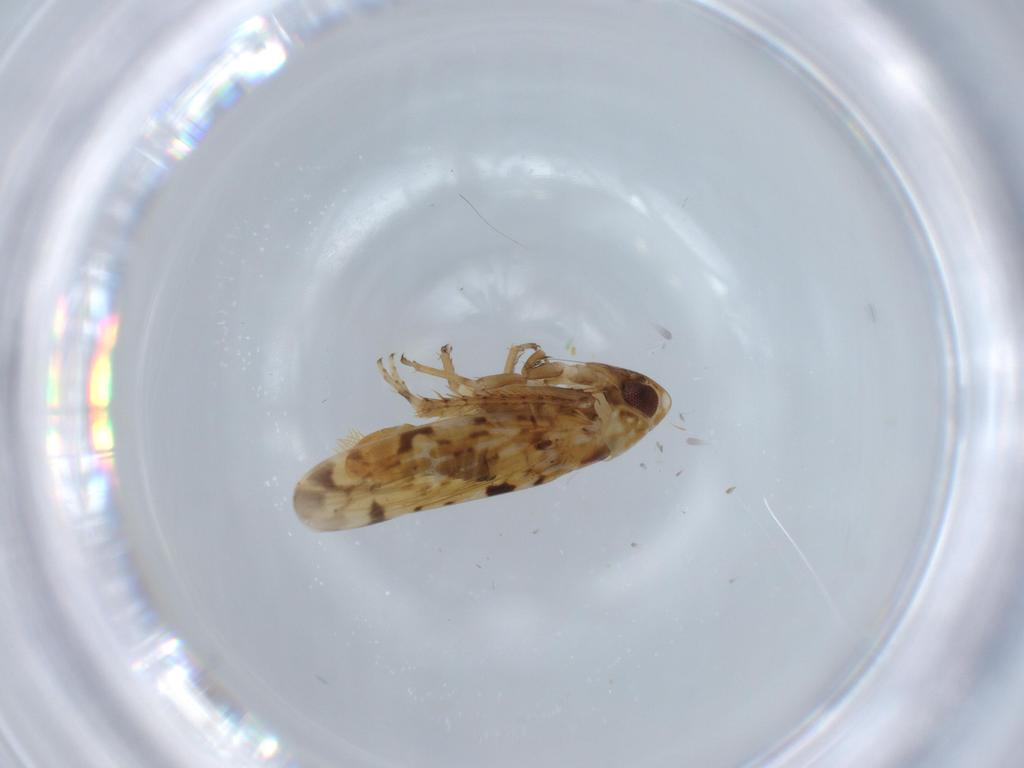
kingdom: Animalia
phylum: Arthropoda
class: Insecta
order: Hemiptera
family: Cicadellidae
